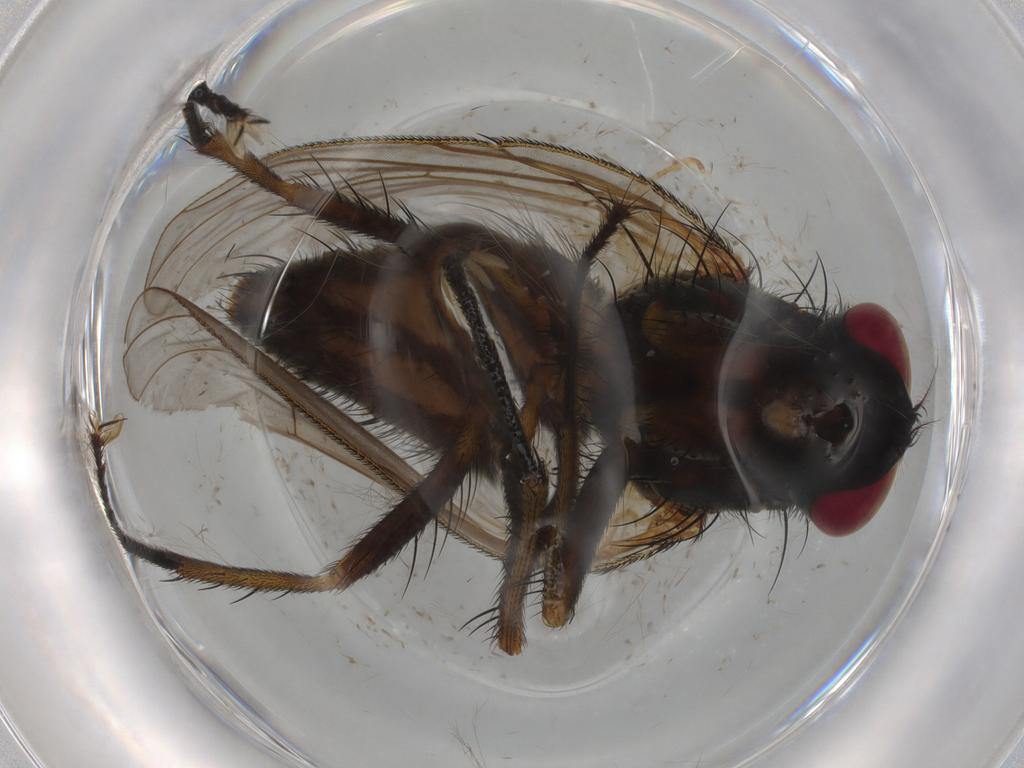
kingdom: Animalia
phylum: Arthropoda
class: Insecta
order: Diptera
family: Muscidae
